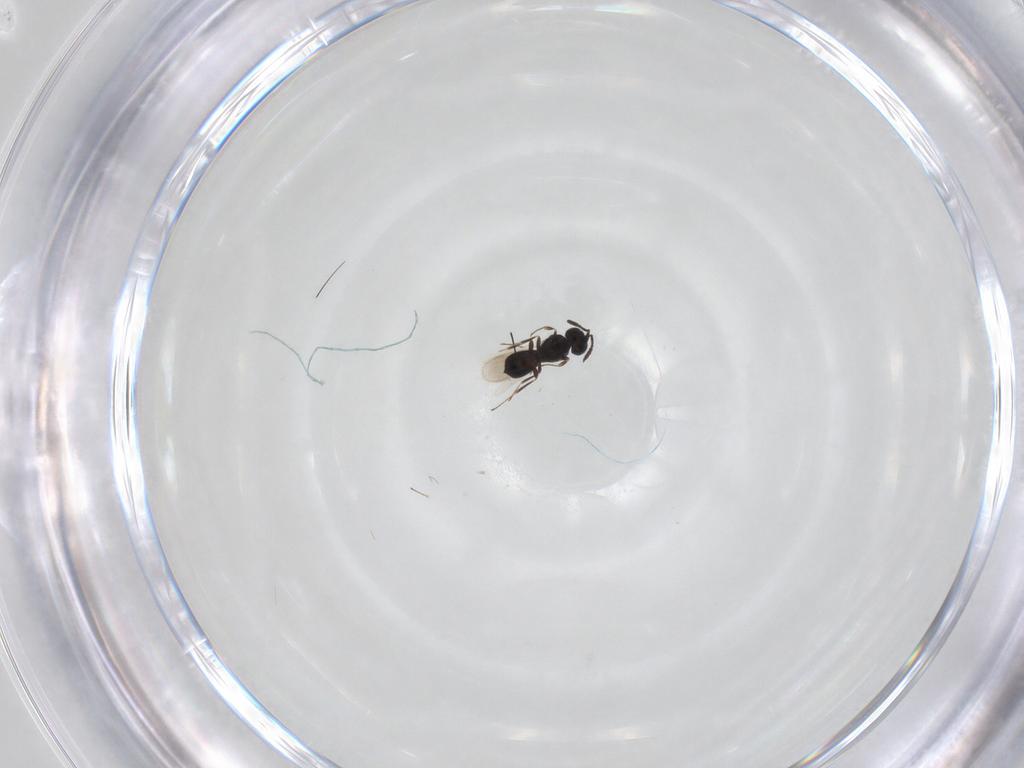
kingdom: Animalia
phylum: Arthropoda
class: Insecta
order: Hymenoptera
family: Scelionidae
